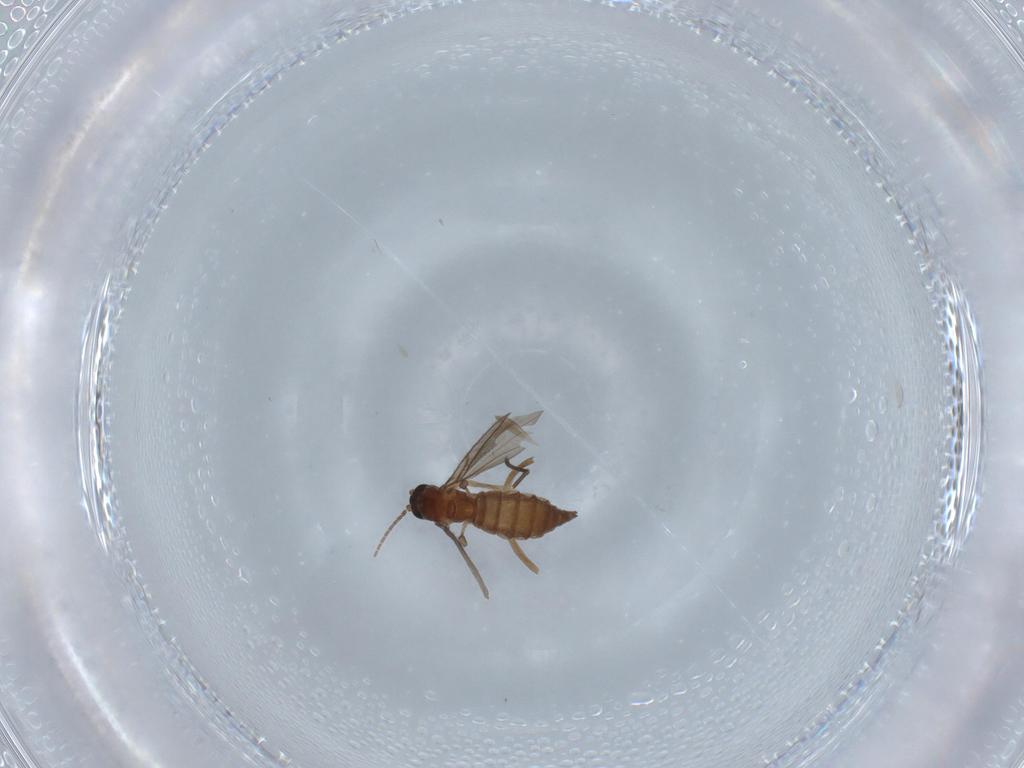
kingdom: Animalia
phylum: Arthropoda
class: Insecta
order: Diptera
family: Sciaridae
